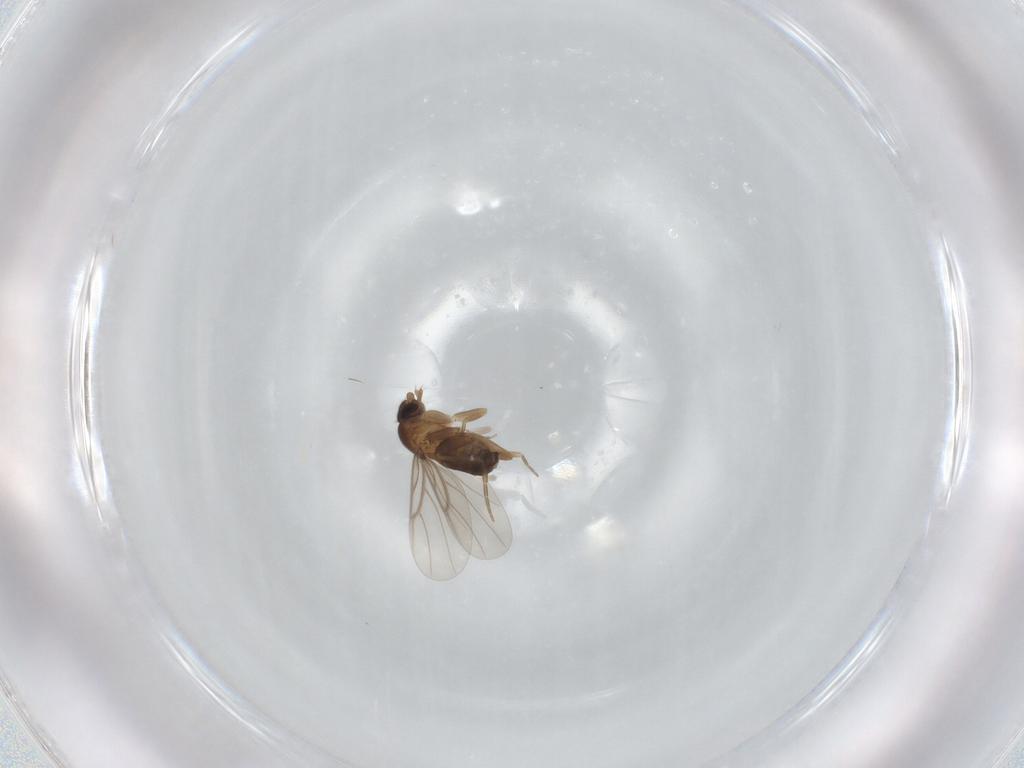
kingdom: Animalia
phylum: Arthropoda
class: Insecta
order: Diptera
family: Phoridae
